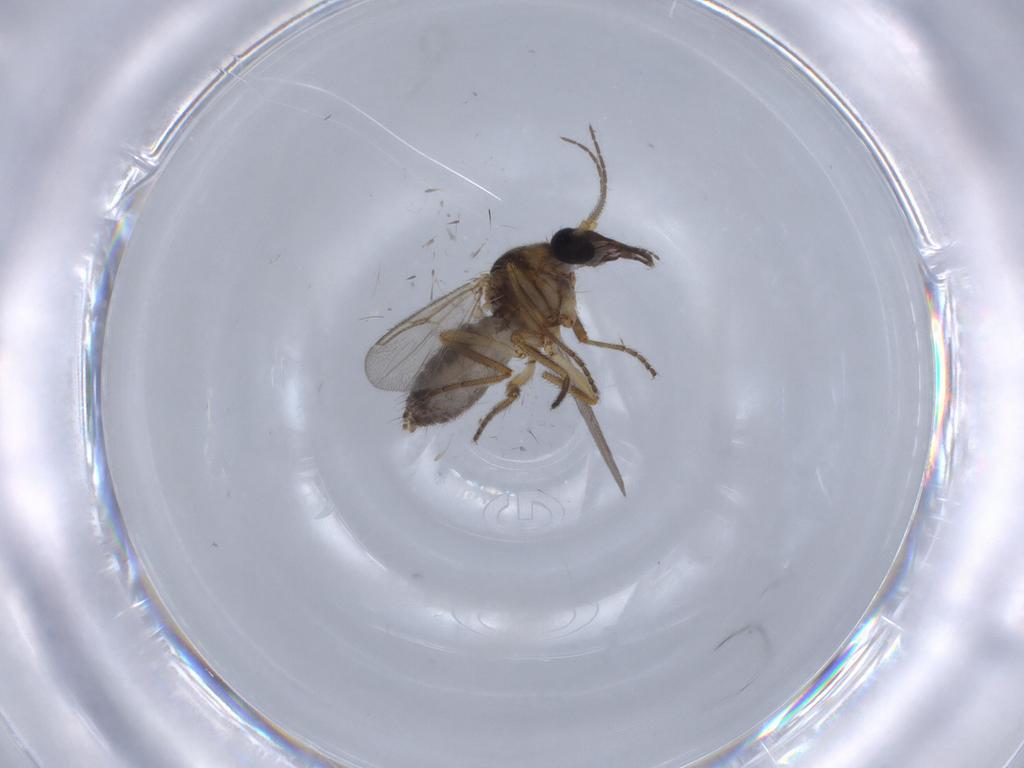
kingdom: Animalia
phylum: Arthropoda
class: Insecta
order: Diptera
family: Ceratopogonidae
